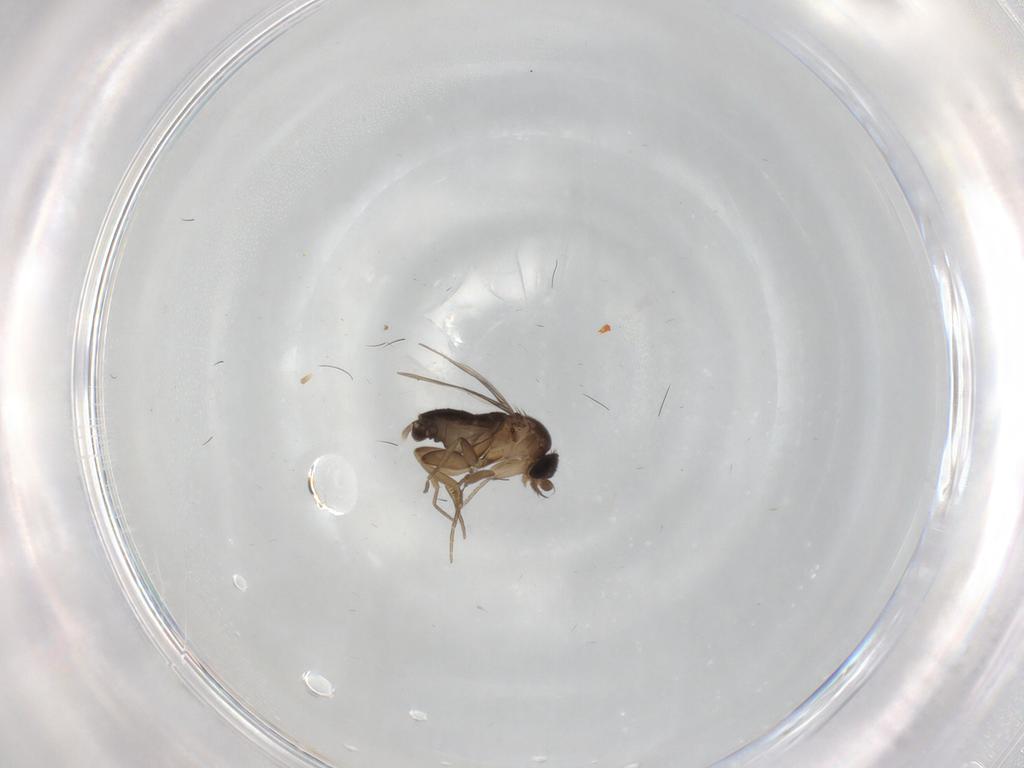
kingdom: Animalia
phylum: Arthropoda
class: Insecta
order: Diptera
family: Phoridae
